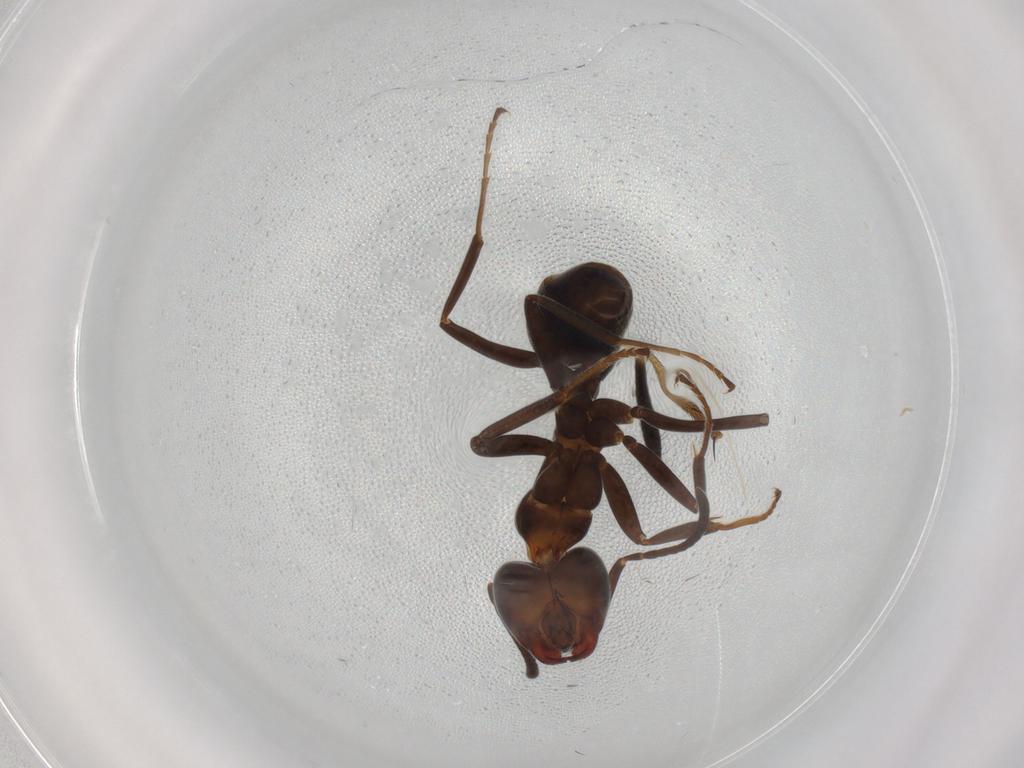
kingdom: Animalia
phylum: Arthropoda
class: Insecta
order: Hymenoptera
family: Formicidae
